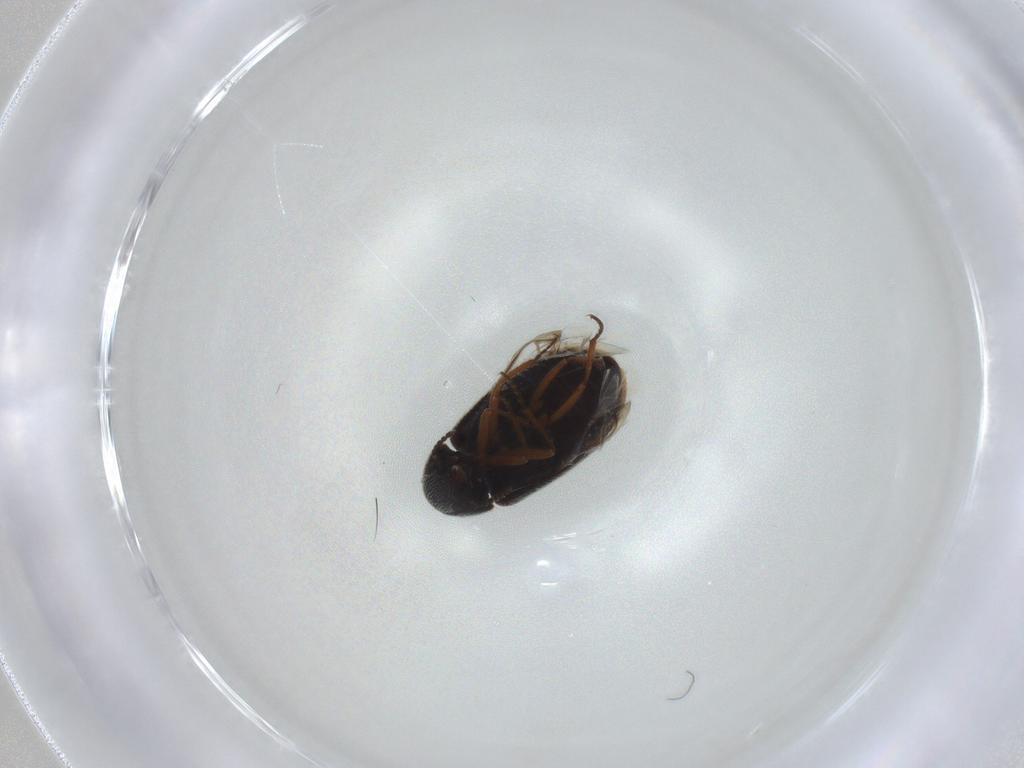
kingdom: Animalia
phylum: Arthropoda
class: Insecta
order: Coleoptera
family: Rhadalidae
